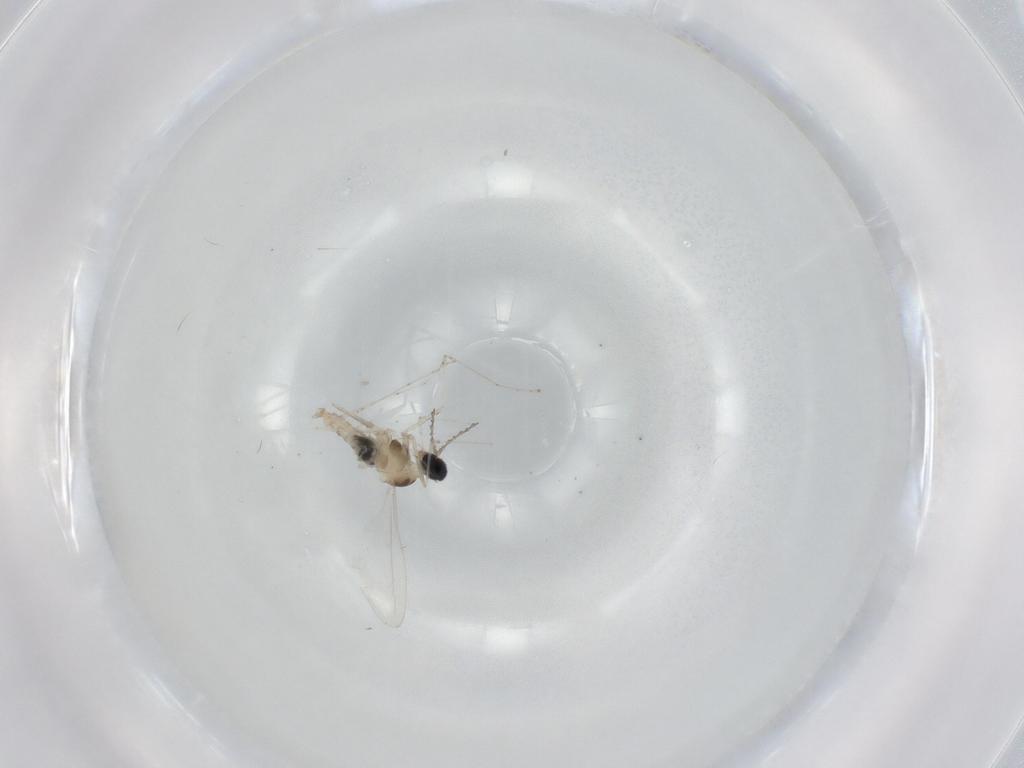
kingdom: Animalia
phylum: Arthropoda
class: Insecta
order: Diptera
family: Cecidomyiidae
